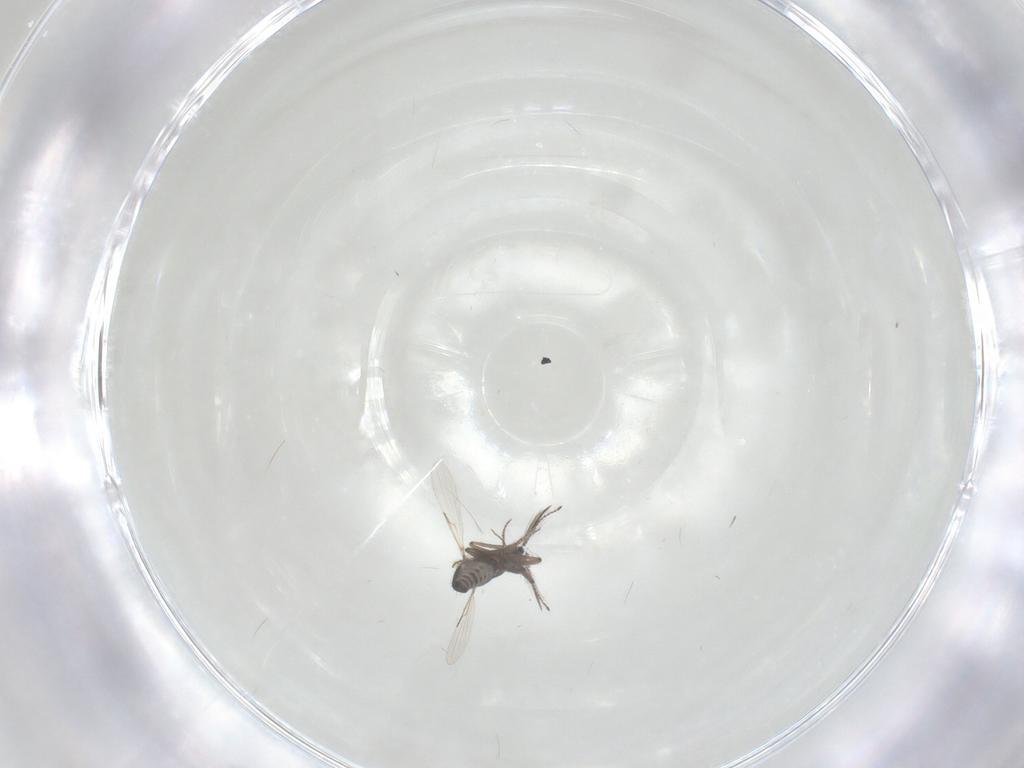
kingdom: Animalia
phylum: Arthropoda
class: Insecta
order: Diptera
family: Ceratopogonidae
